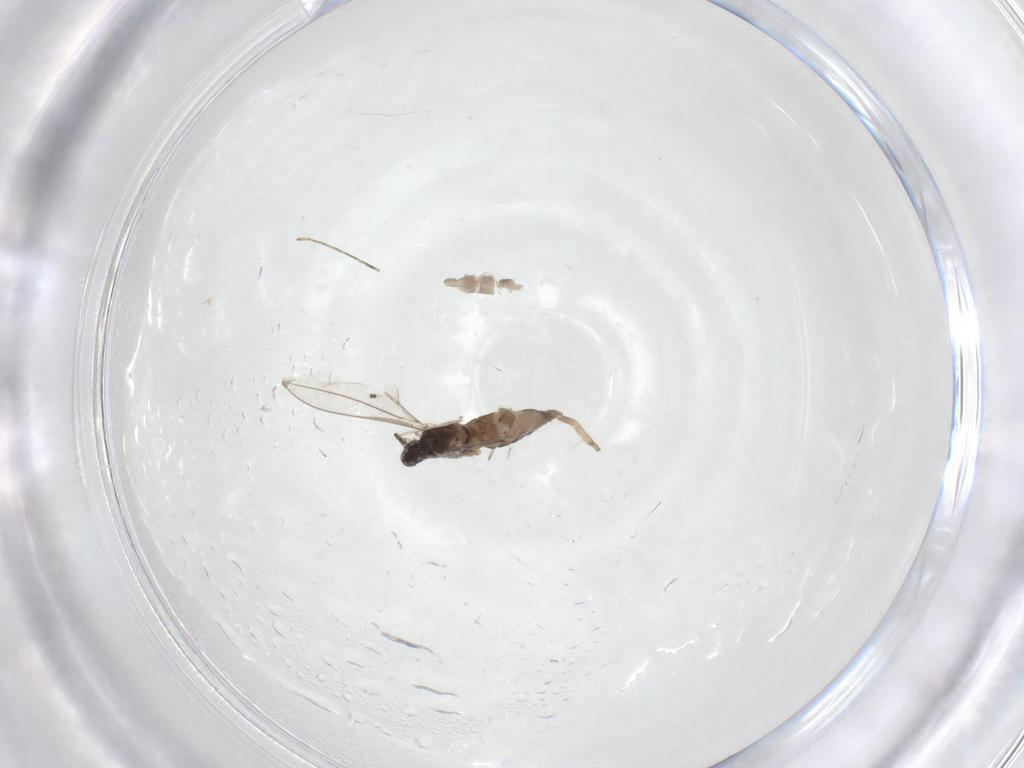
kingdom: Animalia
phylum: Arthropoda
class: Insecta
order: Diptera
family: Cecidomyiidae
